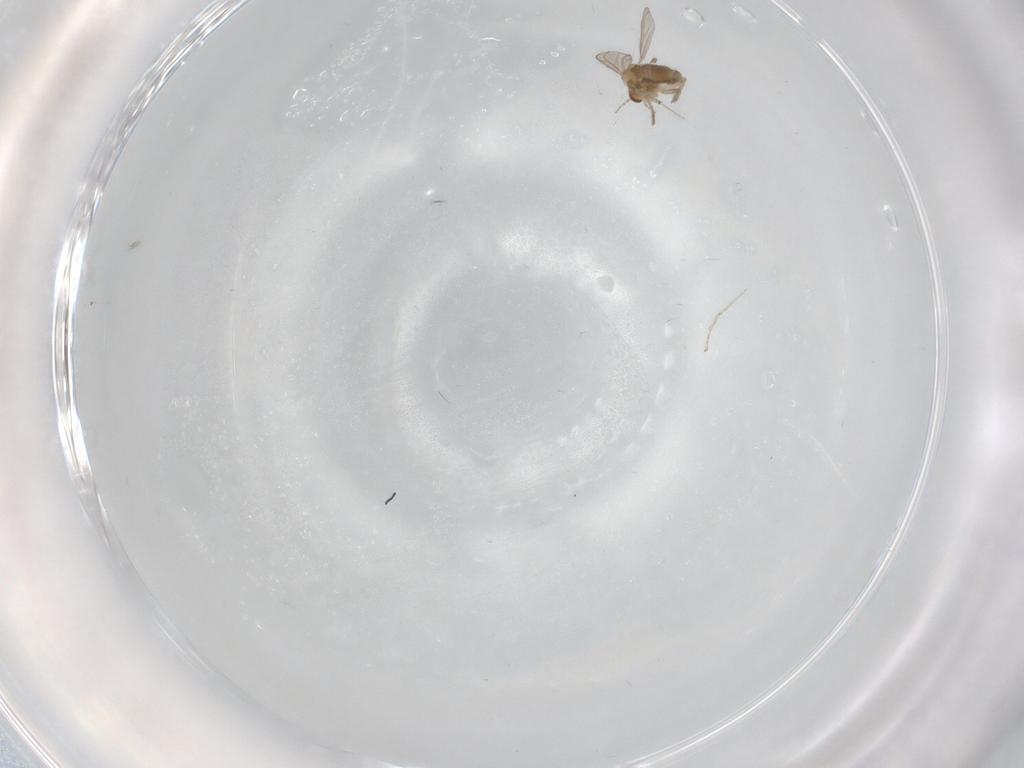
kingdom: Animalia
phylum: Arthropoda
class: Insecta
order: Diptera
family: Cecidomyiidae
